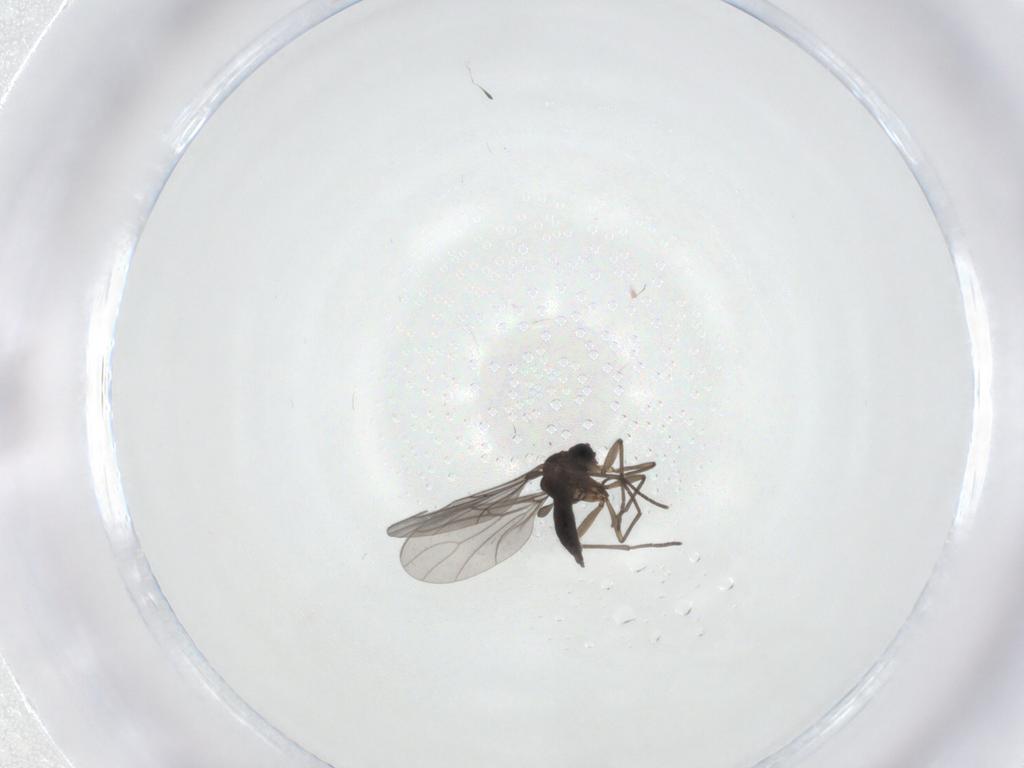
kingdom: Animalia
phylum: Arthropoda
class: Insecta
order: Diptera
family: Sciaridae
